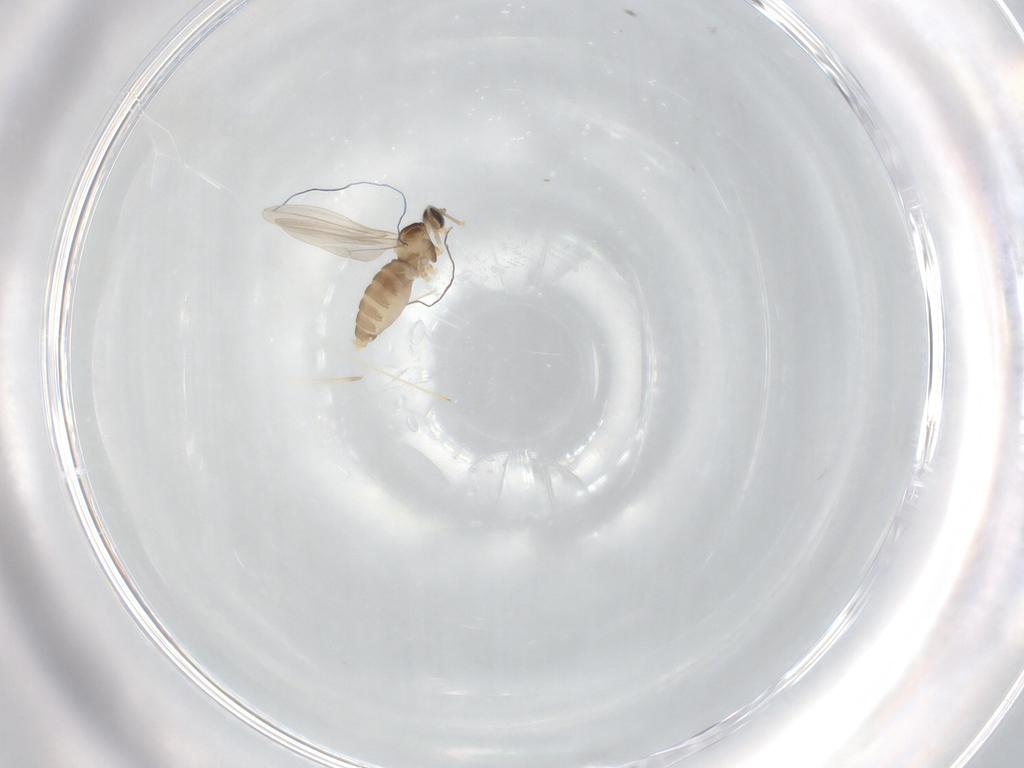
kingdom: Animalia
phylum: Arthropoda
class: Insecta
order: Diptera
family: Cecidomyiidae
